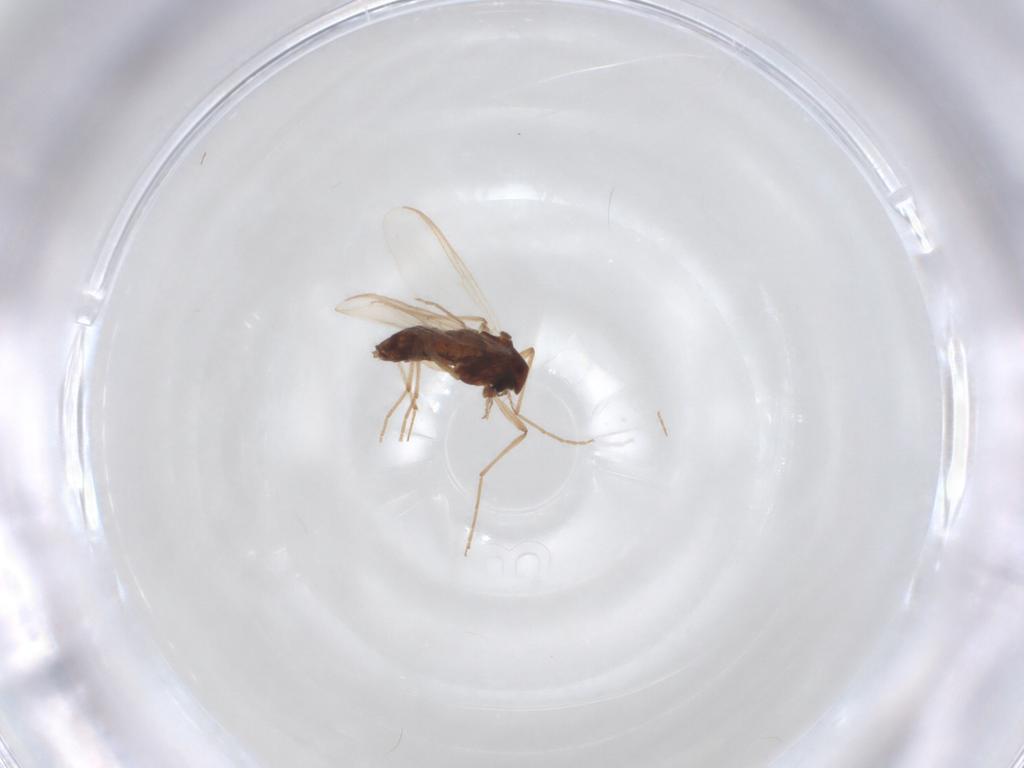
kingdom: Animalia
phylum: Arthropoda
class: Insecta
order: Diptera
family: Chironomidae
